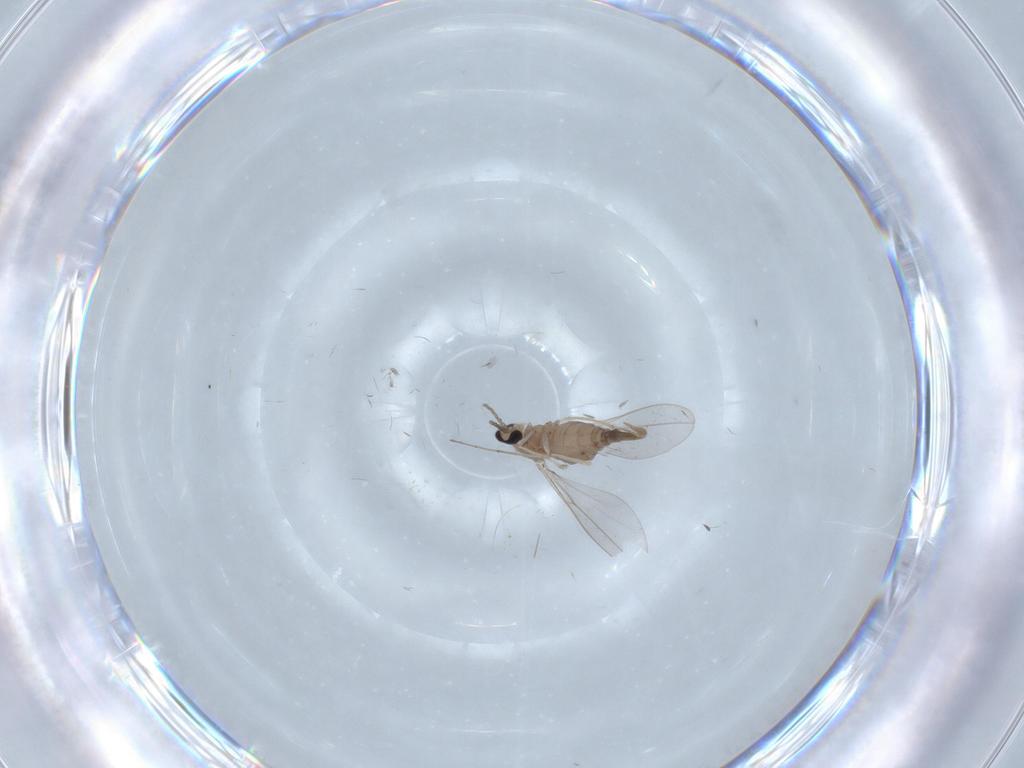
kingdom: Animalia
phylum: Arthropoda
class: Insecta
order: Diptera
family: Cecidomyiidae
